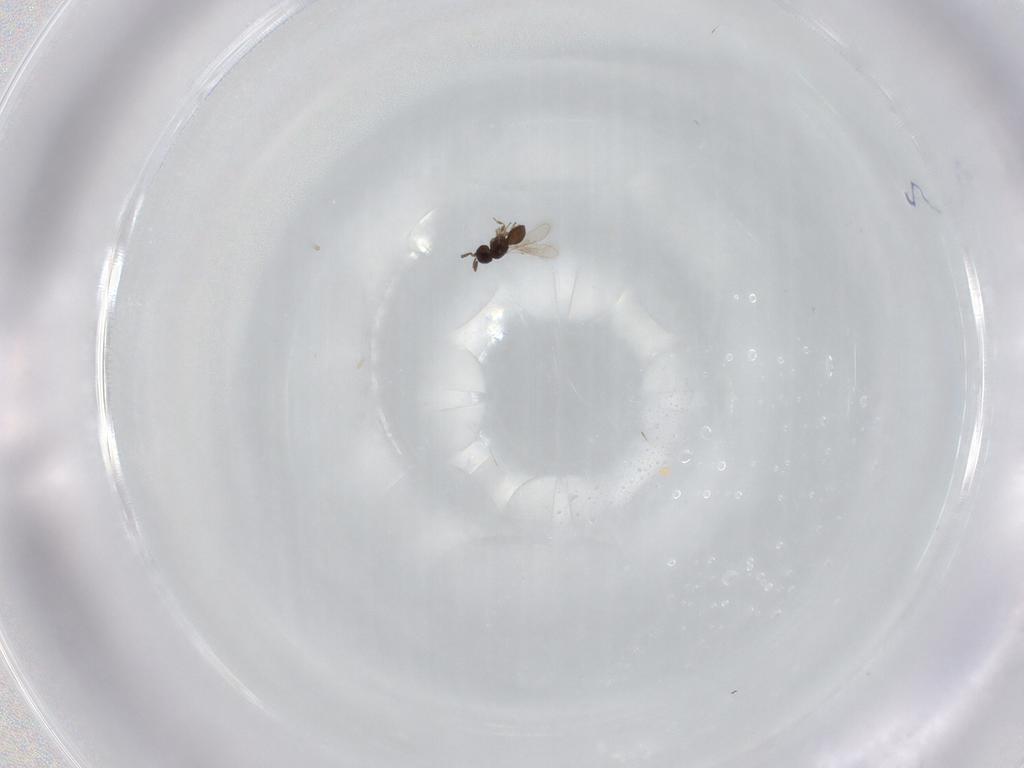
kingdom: Animalia
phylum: Arthropoda
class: Insecta
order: Hymenoptera
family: Scelionidae
